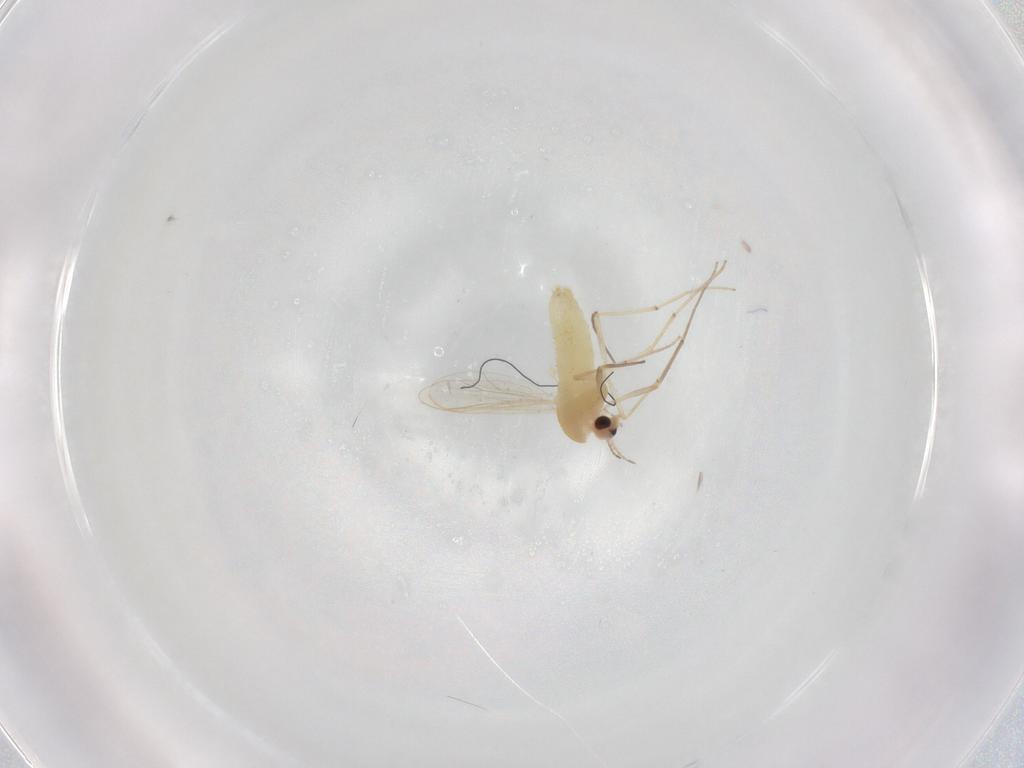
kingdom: Animalia
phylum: Arthropoda
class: Insecta
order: Diptera
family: Chironomidae
